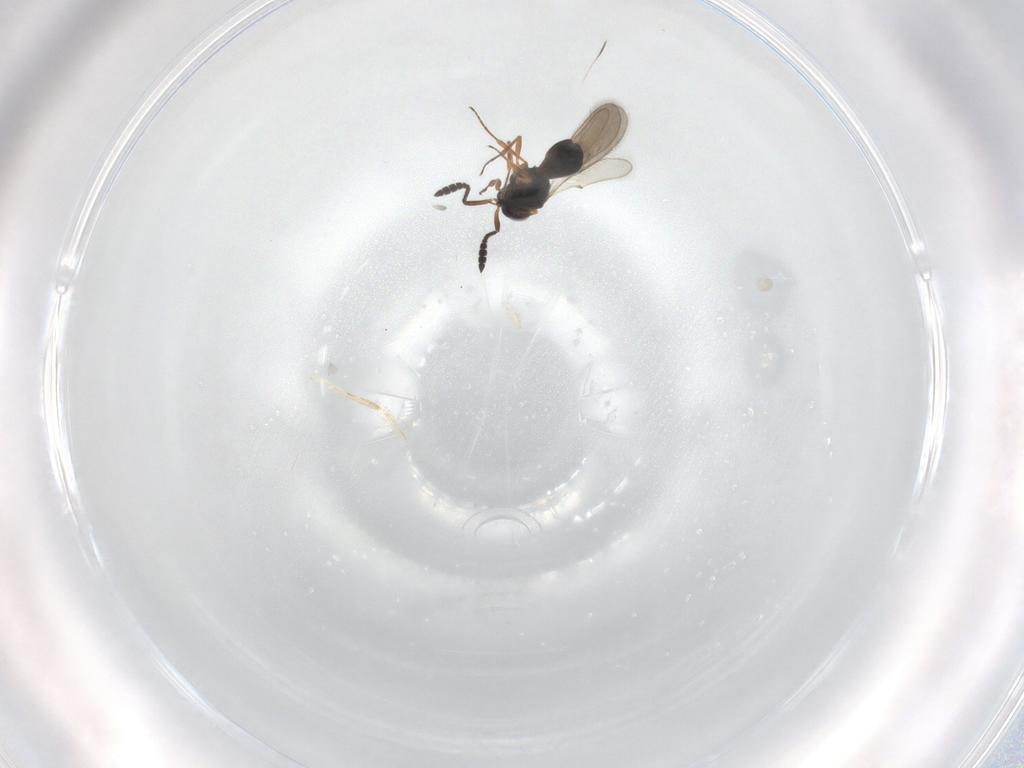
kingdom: Animalia
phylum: Arthropoda
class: Insecta
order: Hymenoptera
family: Scelionidae
